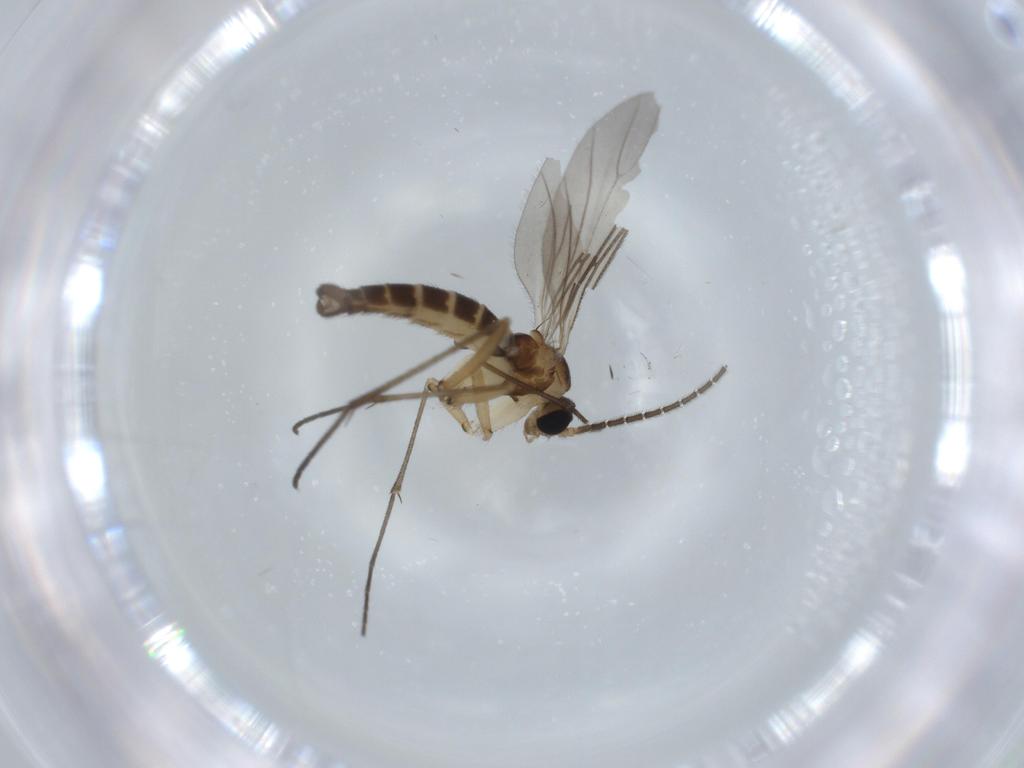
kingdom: Animalia
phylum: Arthropoda
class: Insecta
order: Diptera
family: Sciaridae
